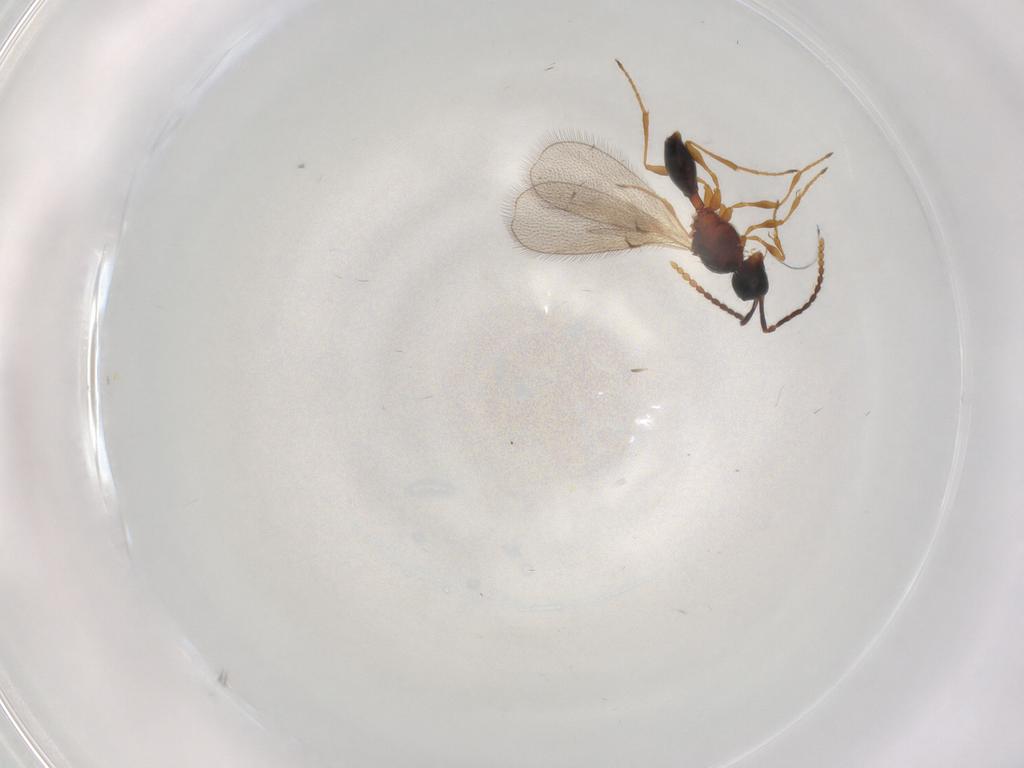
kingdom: Animalia
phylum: Arthropoda
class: Insecta
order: Hymenoptera
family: Diapriidae
